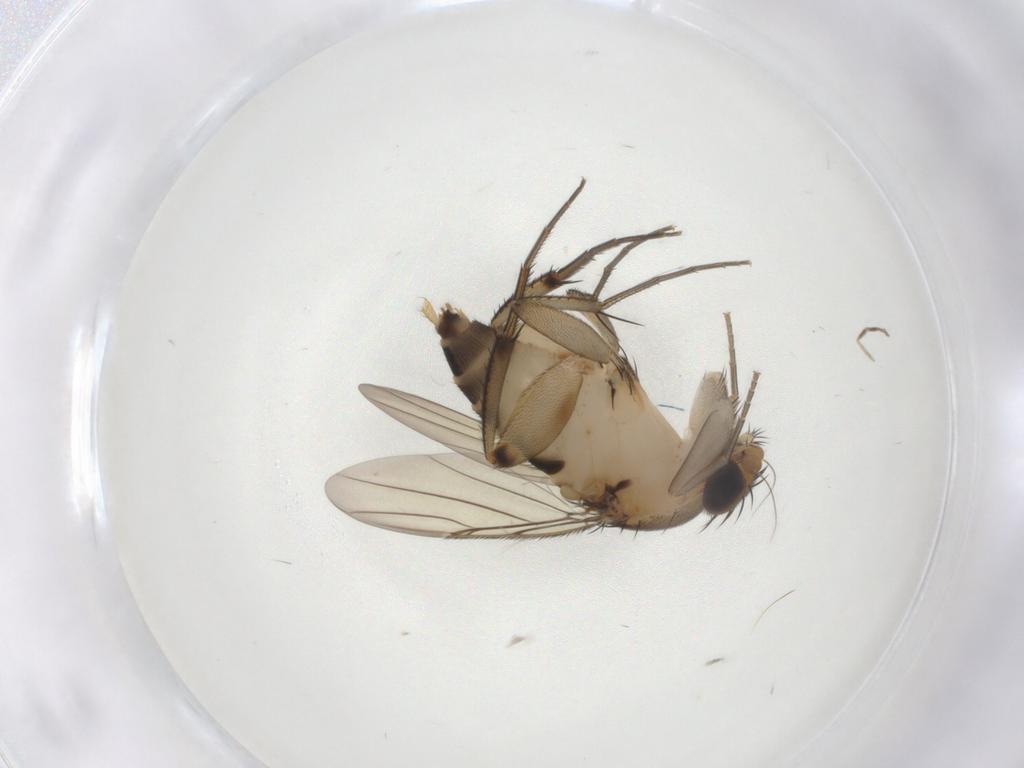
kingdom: Animalia
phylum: Arthropoda
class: Insecta
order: Diptera
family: Phoridae
